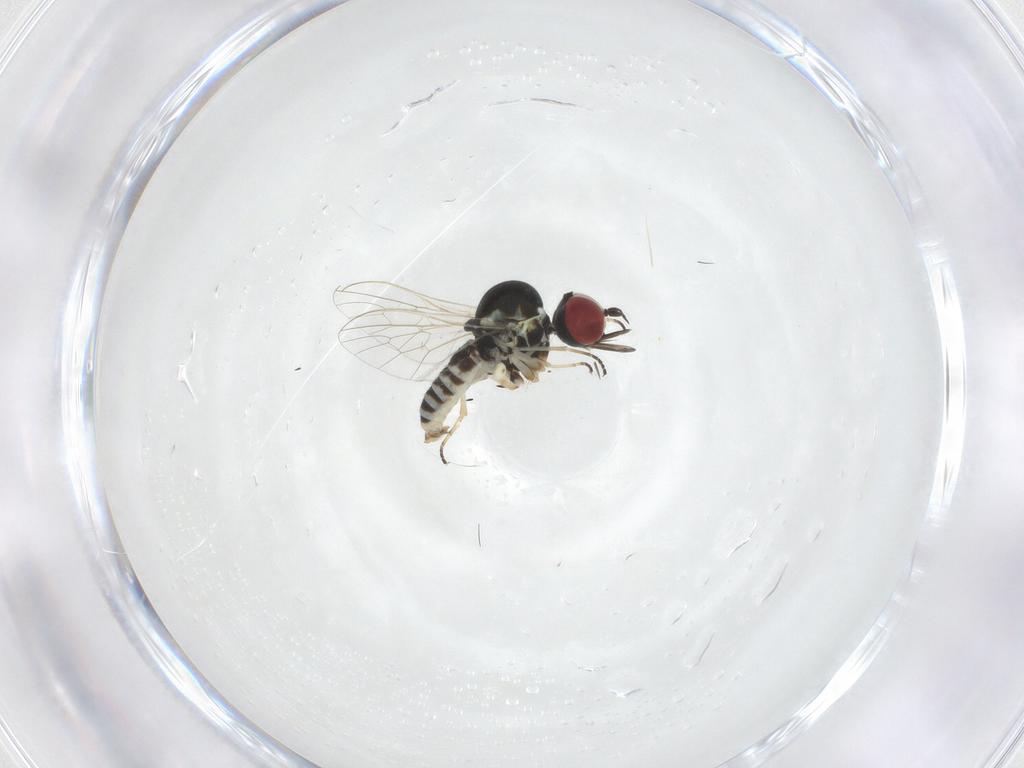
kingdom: Animalia
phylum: Arthropoda
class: Insecta
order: Diptera
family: Mythicomyiidae
